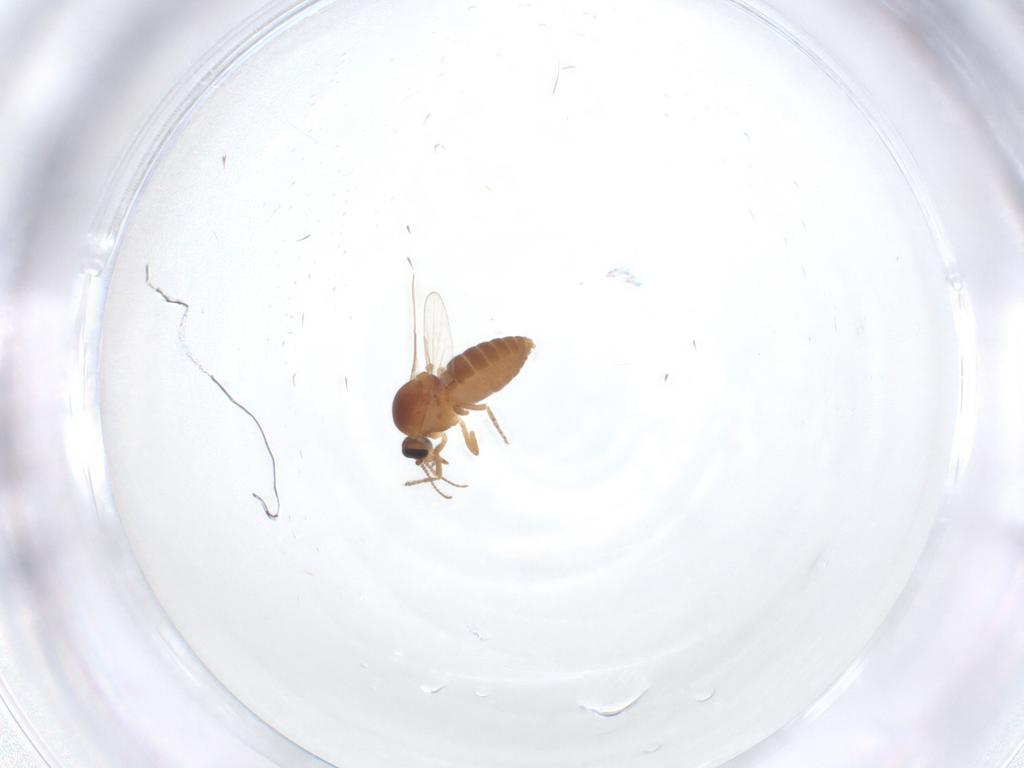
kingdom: Animalia
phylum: Arthropoda
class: Insecta
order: Diptera
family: Ceratopogonidae
